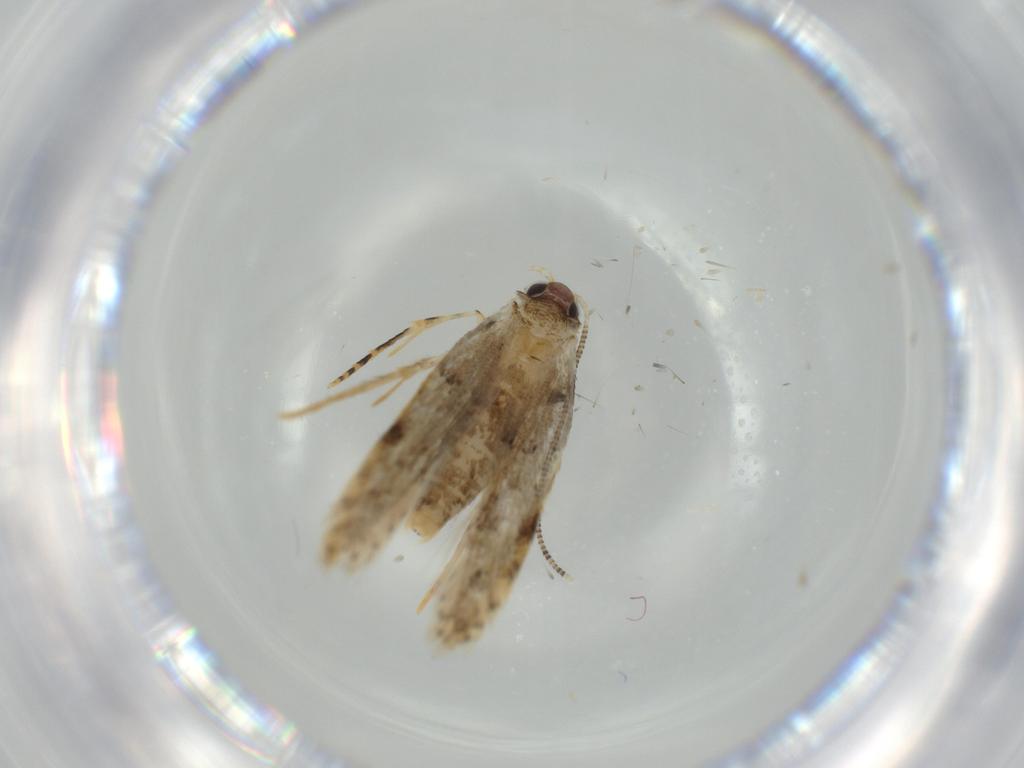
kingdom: Animalia
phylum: Arthropoda
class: Insecta
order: Lepidoptera
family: Tineidae
